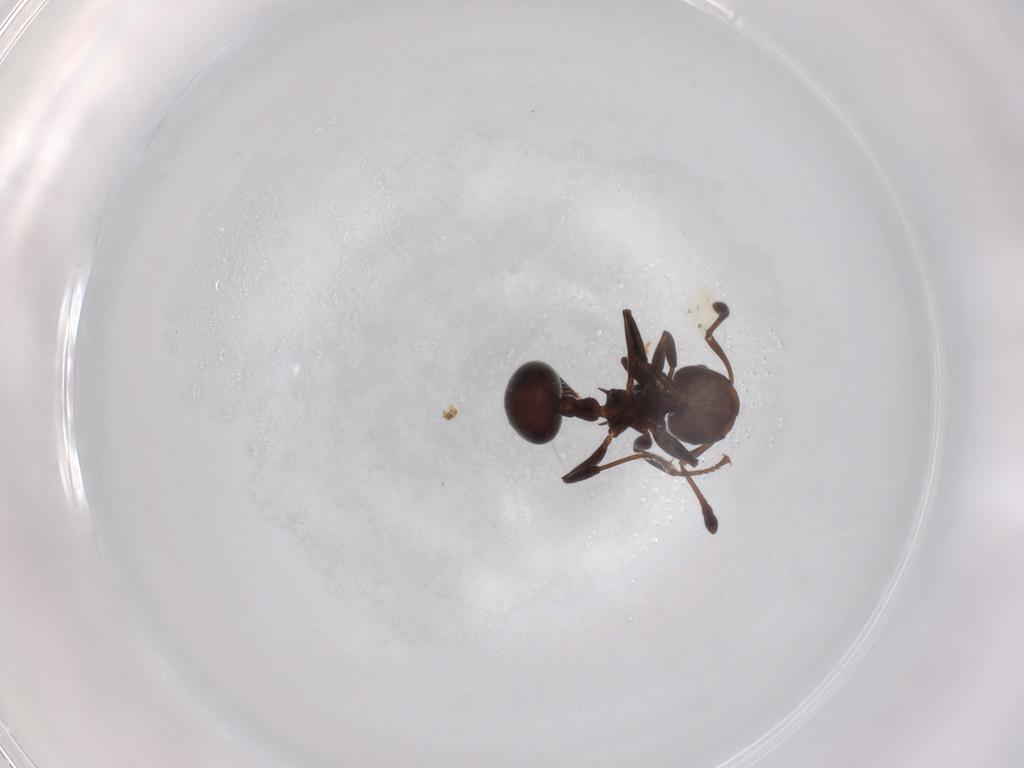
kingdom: Animalia
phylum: Arthropoda
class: Insecta
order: Hymenoptera
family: Formicidae
